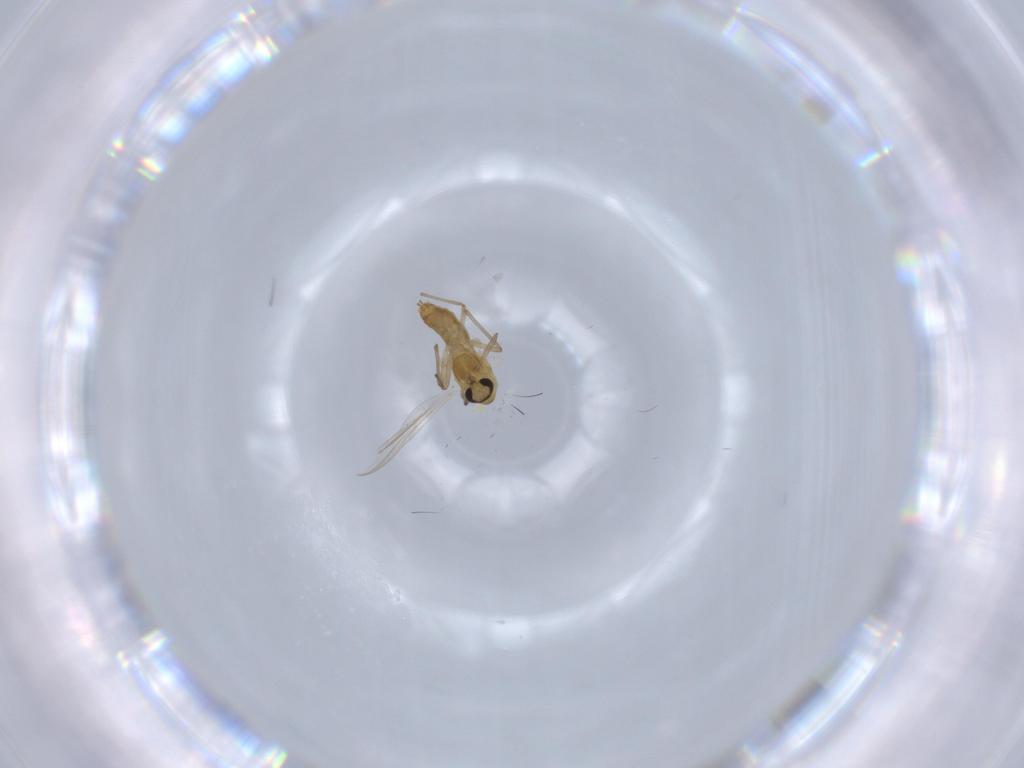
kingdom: Animalia
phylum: Arthropoda
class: Insecta
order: Diptera
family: Chironomidae
